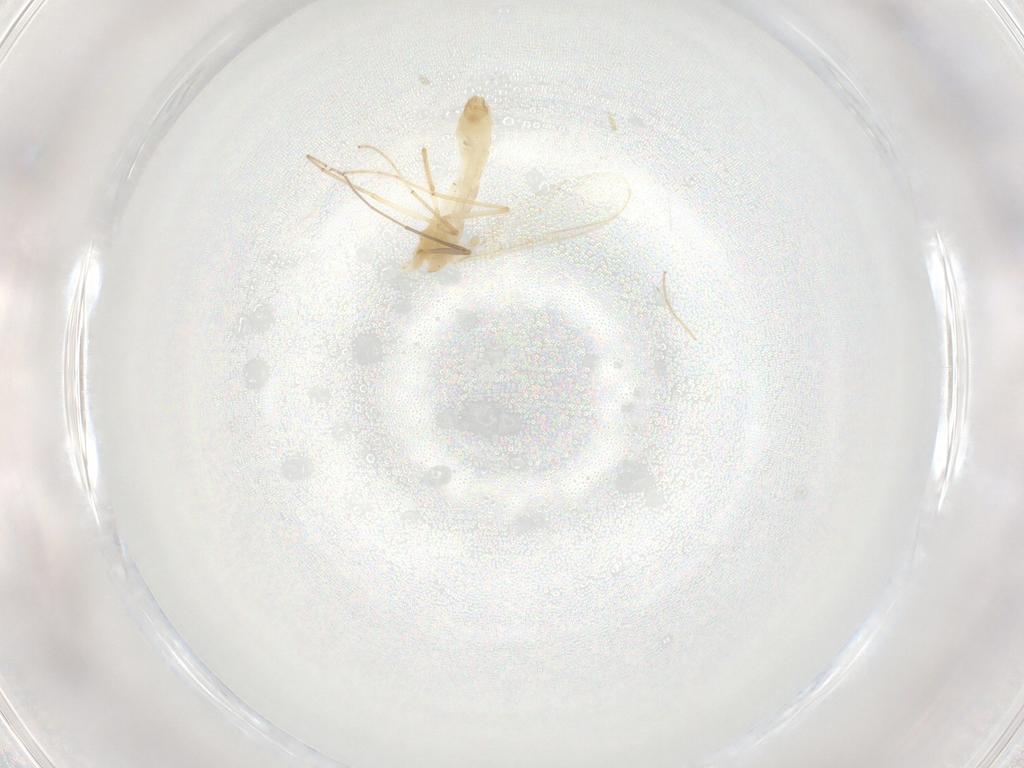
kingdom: Animalia
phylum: Arthropoda
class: Insecta
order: Diptera
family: Chironomidae
